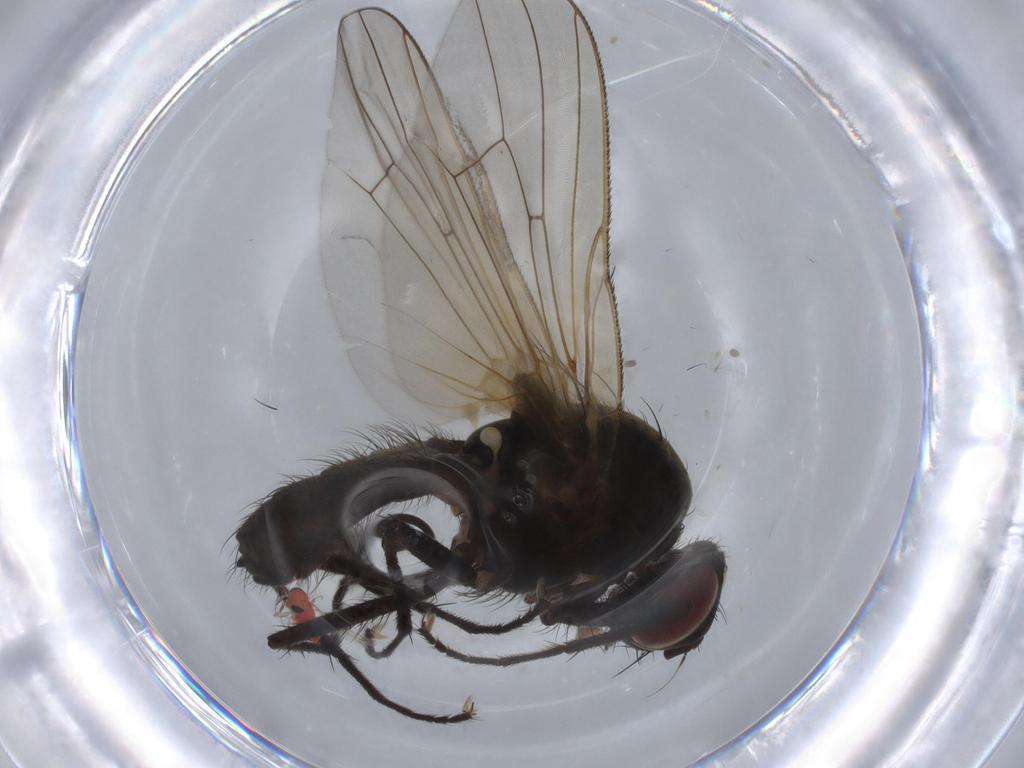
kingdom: Animalia
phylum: Arthropoda
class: Insecta
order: Diptera
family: Anthomyiidae
